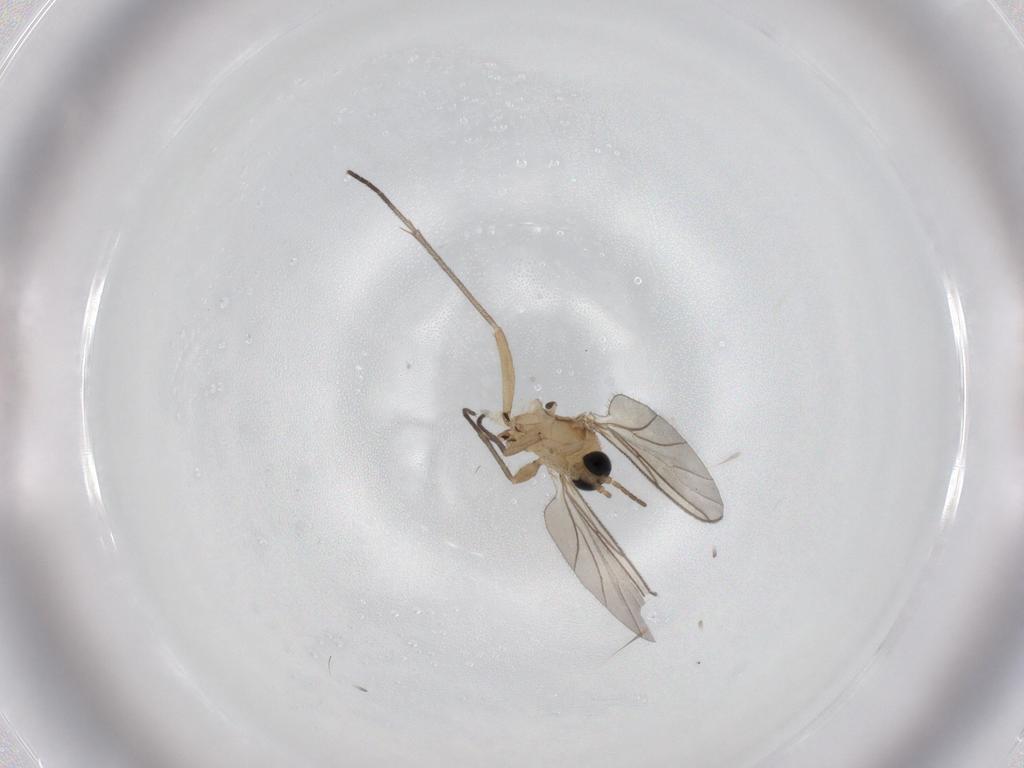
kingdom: Animalia
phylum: Arthropoda
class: Insecta
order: Diptera
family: Sciaridae
